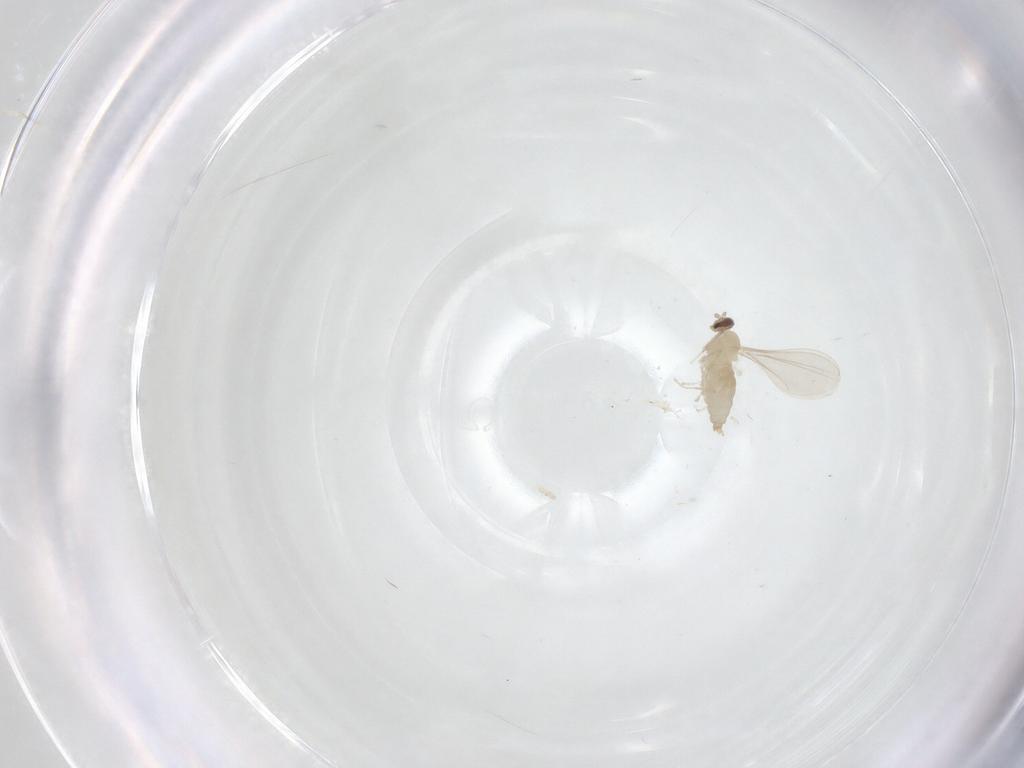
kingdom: Animalia
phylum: Arthropoda
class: Insecta
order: Diptera
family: Cecidomyiidae
